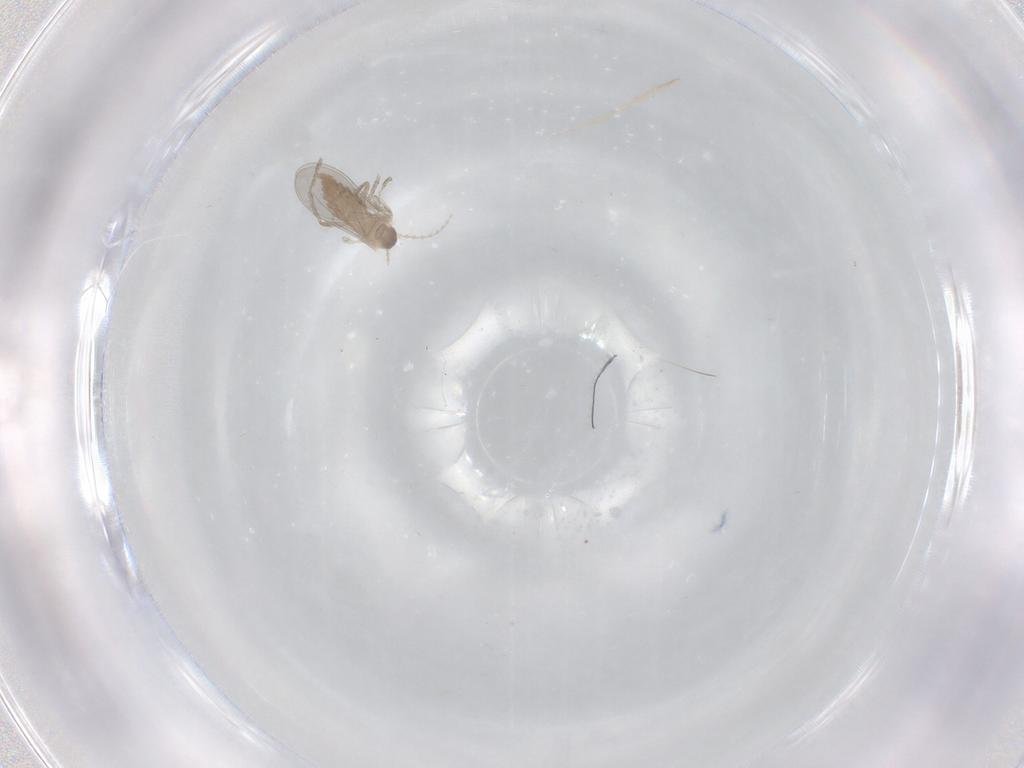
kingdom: Animalia
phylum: Arthropoda
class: Insecta
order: Diptera
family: Cecidomyiidae
